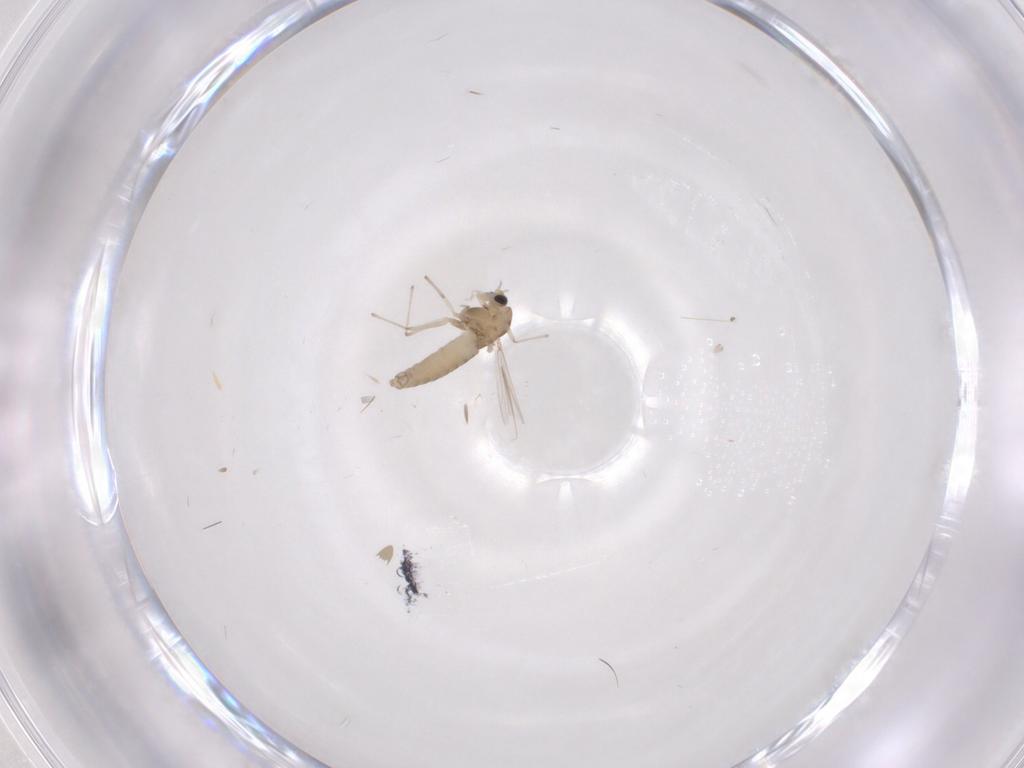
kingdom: Animalia
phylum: Arthropoda
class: Insecta
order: Diptera
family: Chironomidae
